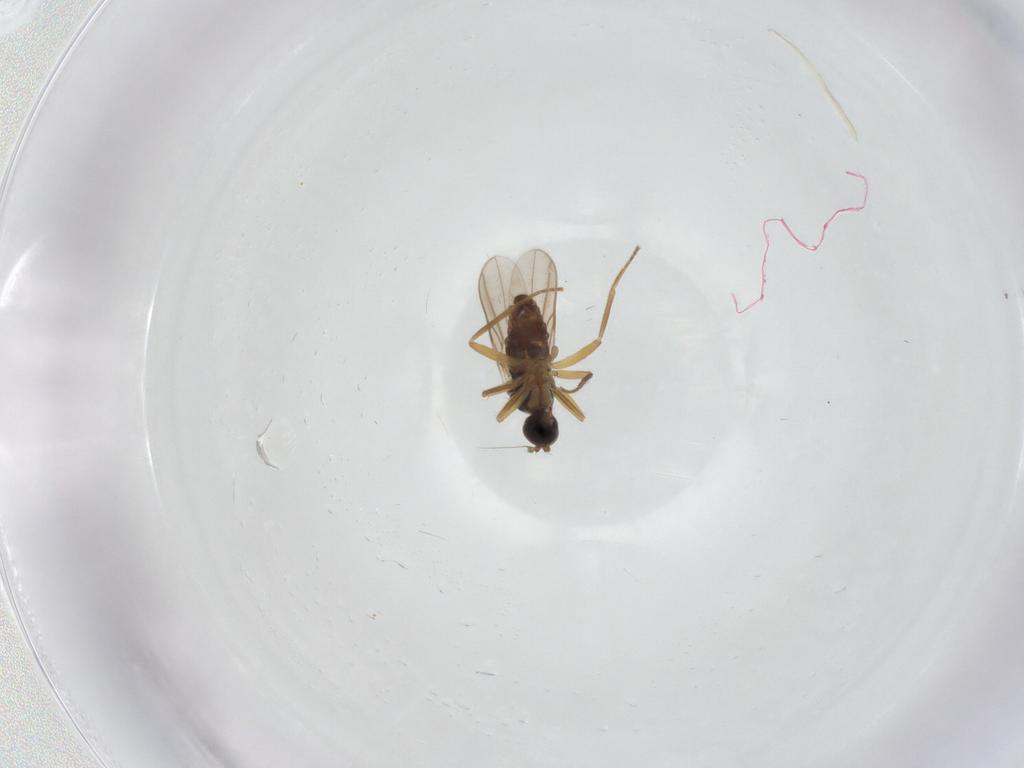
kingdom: Animalia
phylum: Arthropoda
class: Insecta
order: Diptera
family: Hybotidae
